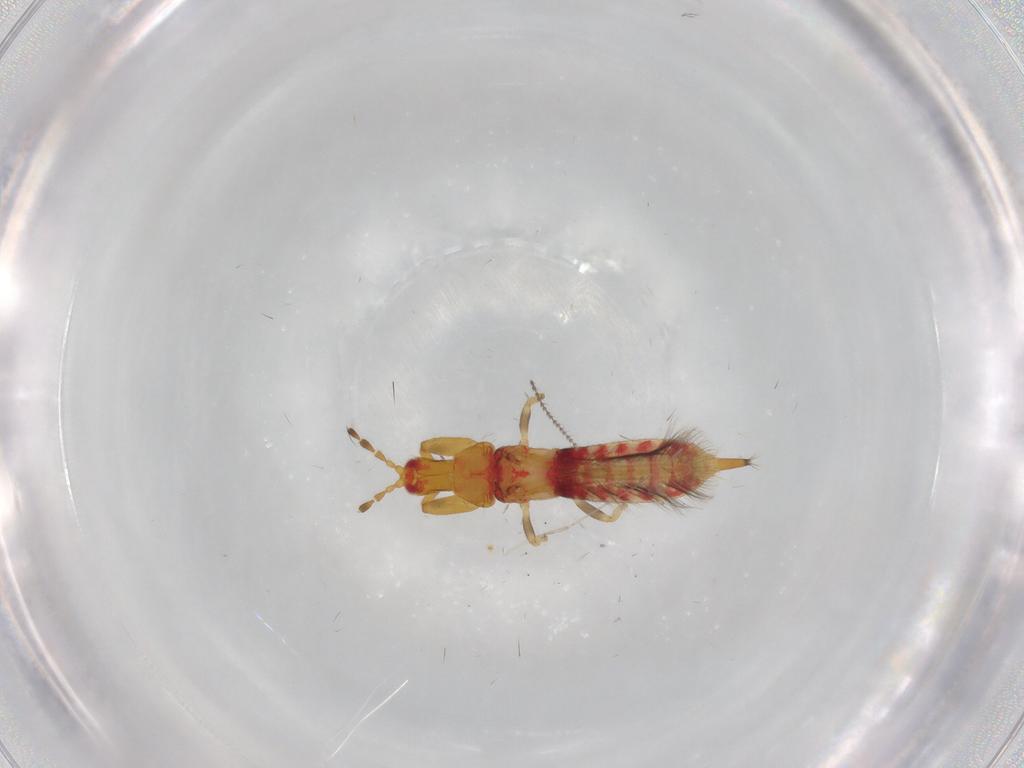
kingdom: Animalia
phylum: Arthropoda
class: Insecta
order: Thysanoptera
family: Phlaeothripidae
